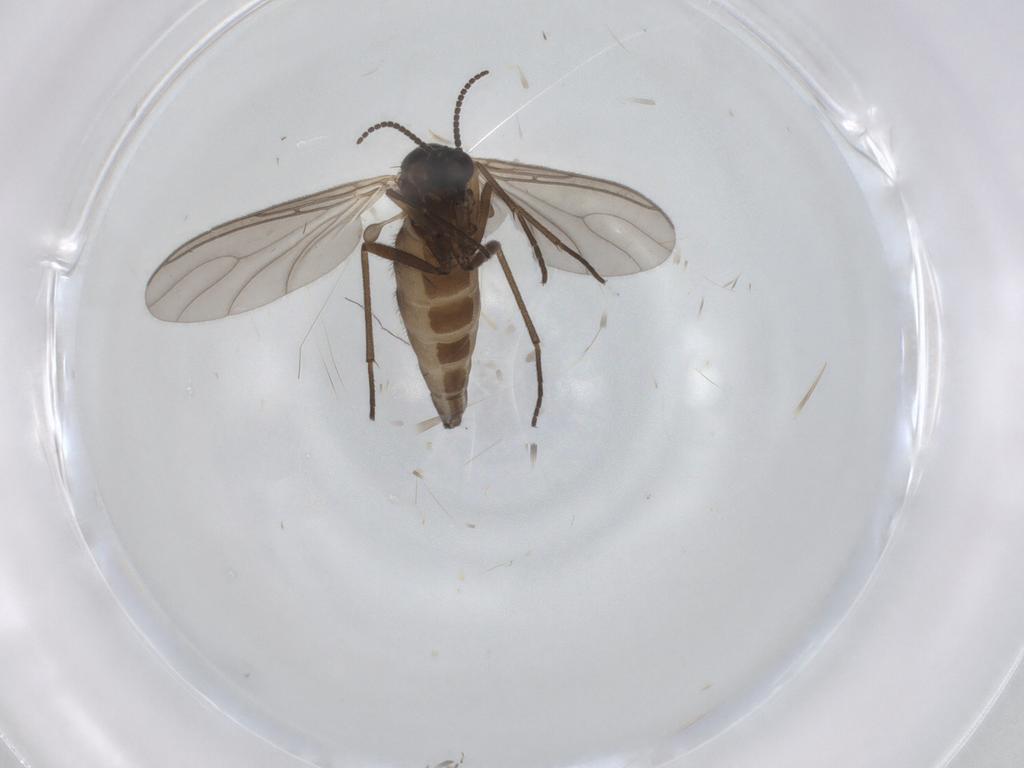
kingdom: Animalia
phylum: Arthropoda
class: Insecta
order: Diptera
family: Sciaridae
